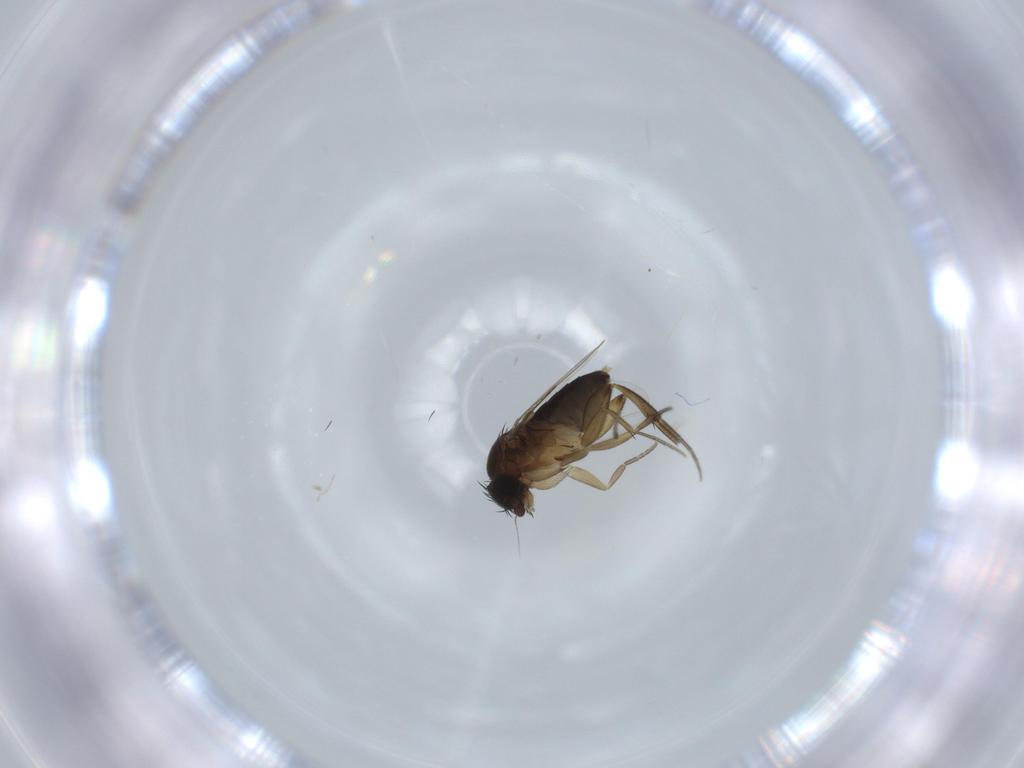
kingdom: Animalia
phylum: Arthropoda
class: Insecta
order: Diptera
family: Phoridae
